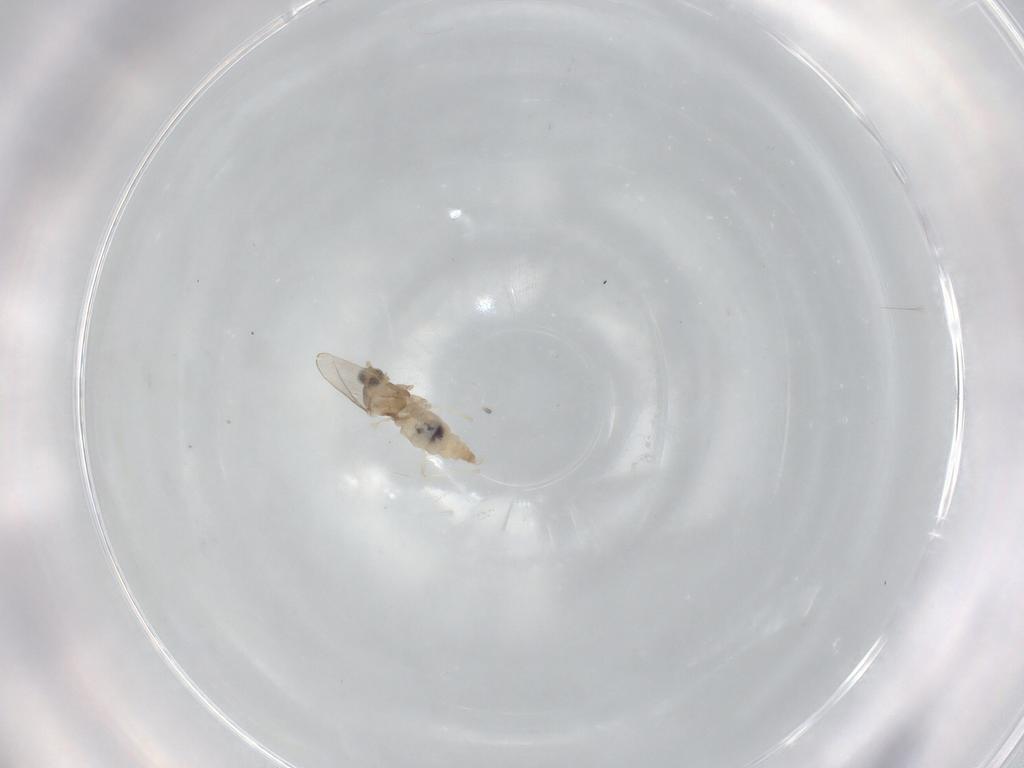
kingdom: Animalia
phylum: Arthropoda
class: Insecta
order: Diptera
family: Cecidomyiidae
